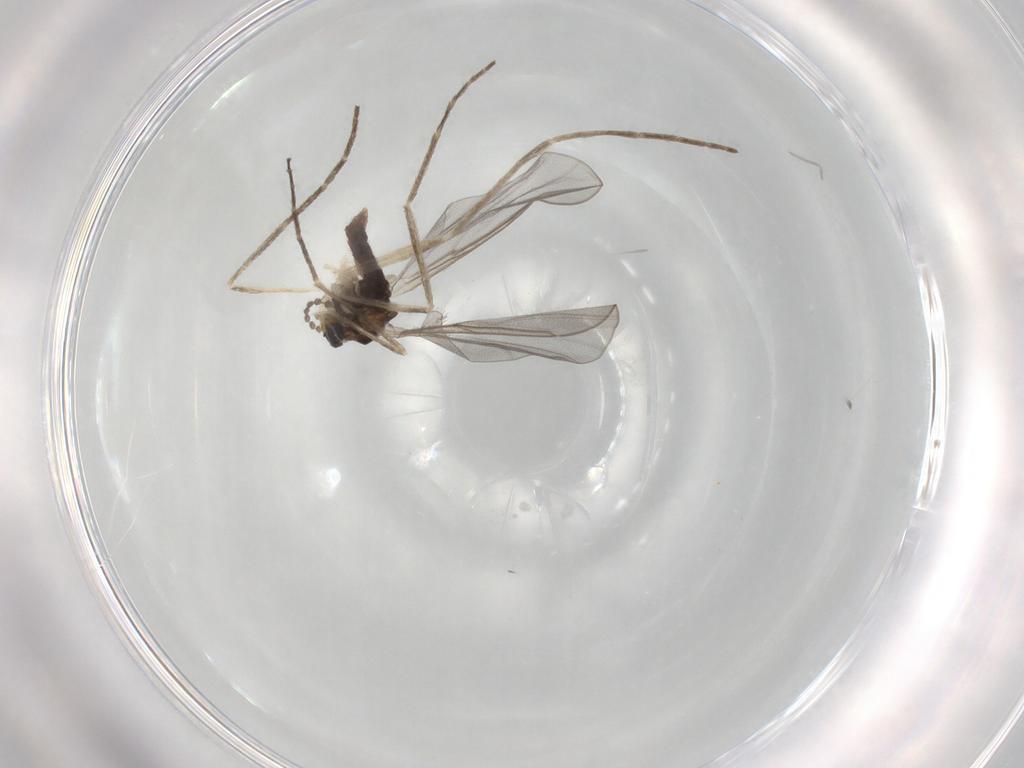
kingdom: Animalia
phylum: Arthropoda
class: Insecta
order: Diptera
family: Cecidomyiidae
